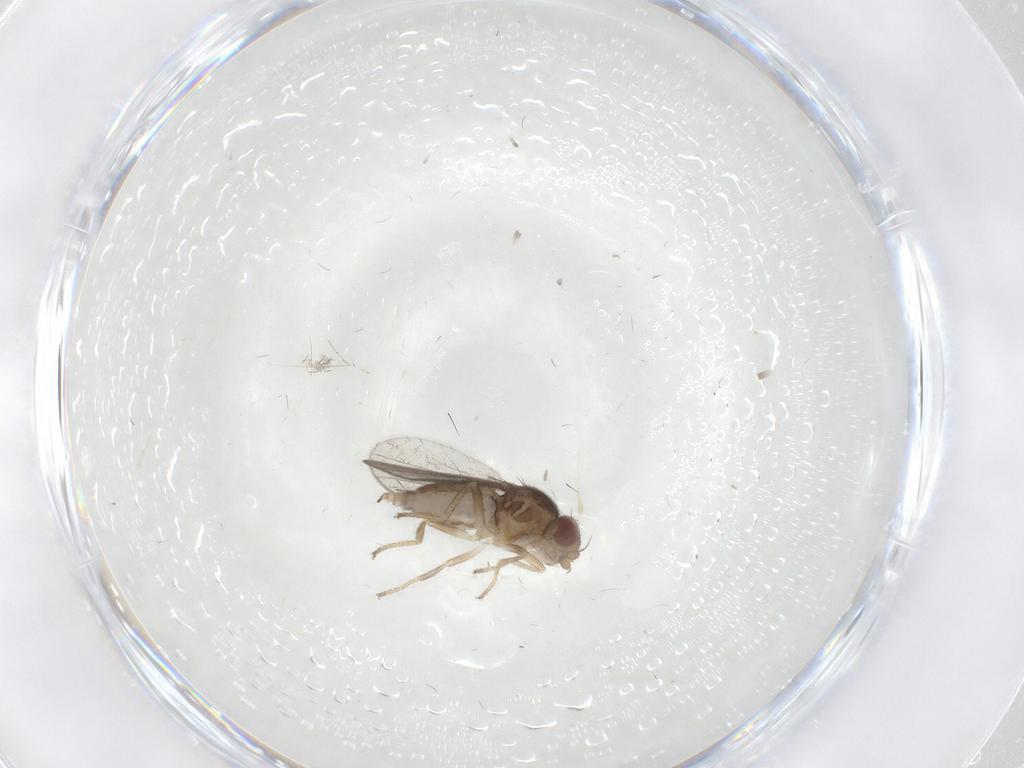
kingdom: Animalia
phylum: Arthropoda
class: Insecta
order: Diptera
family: Chloropidae
